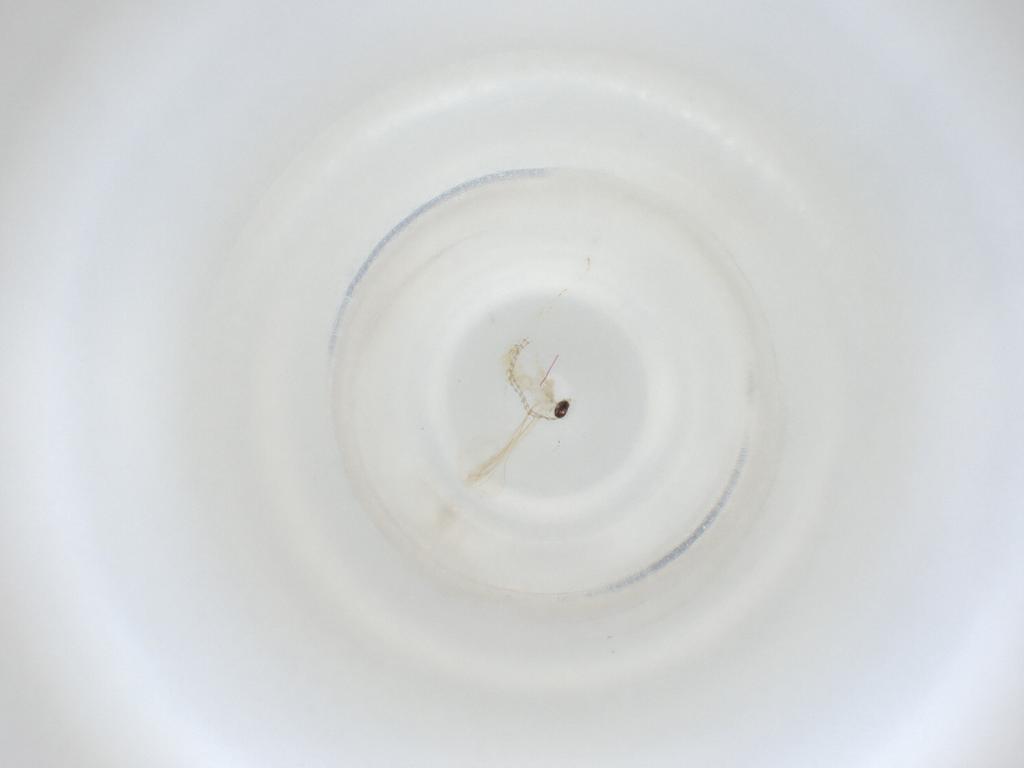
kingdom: Animalia
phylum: Arthropoda
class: Insecta
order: Diptera
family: Cecidomyiidae
